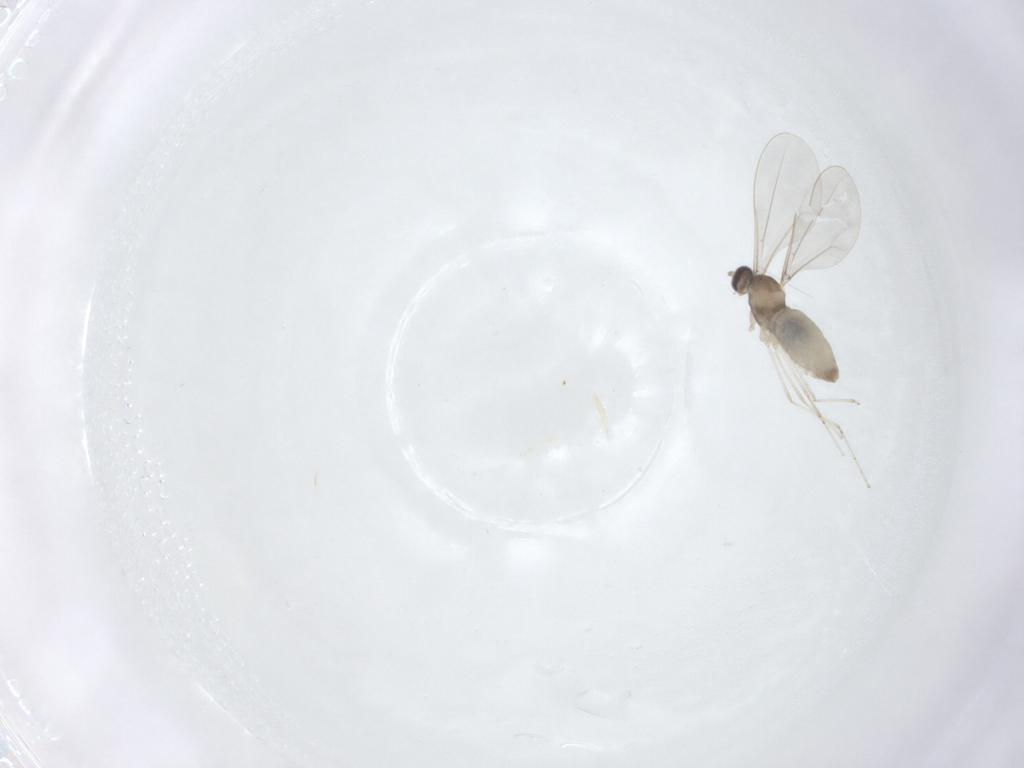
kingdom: Animalia
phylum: Arthropoda
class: Insecta
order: Diptera
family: Cecidomyiidae
